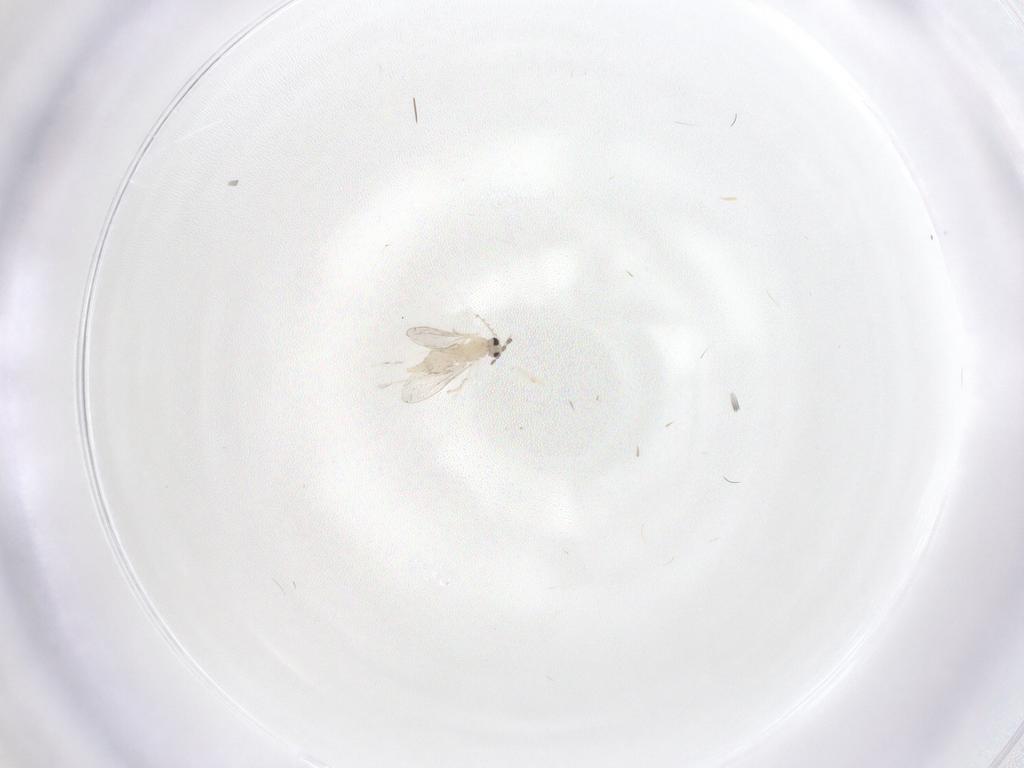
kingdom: Animalia
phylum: Arthropoda
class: Insecta
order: Diptera
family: Cecidomyiidae
